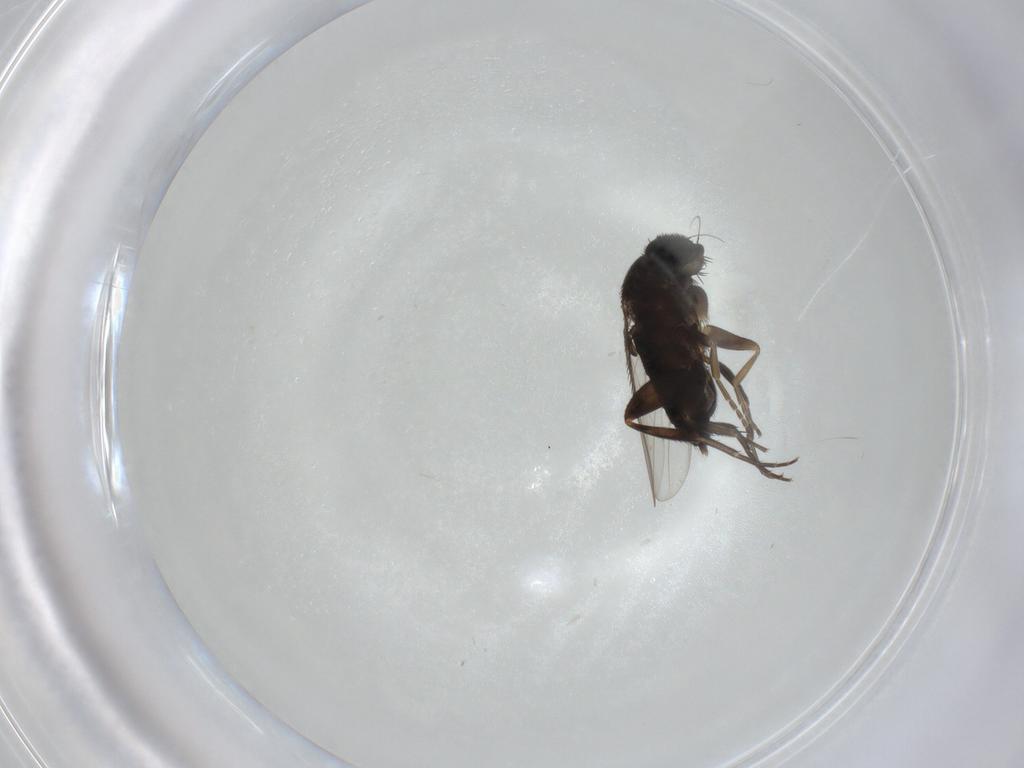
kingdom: Animalia
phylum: Arthropoda
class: Insecta
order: Diptera
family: Phoridae
